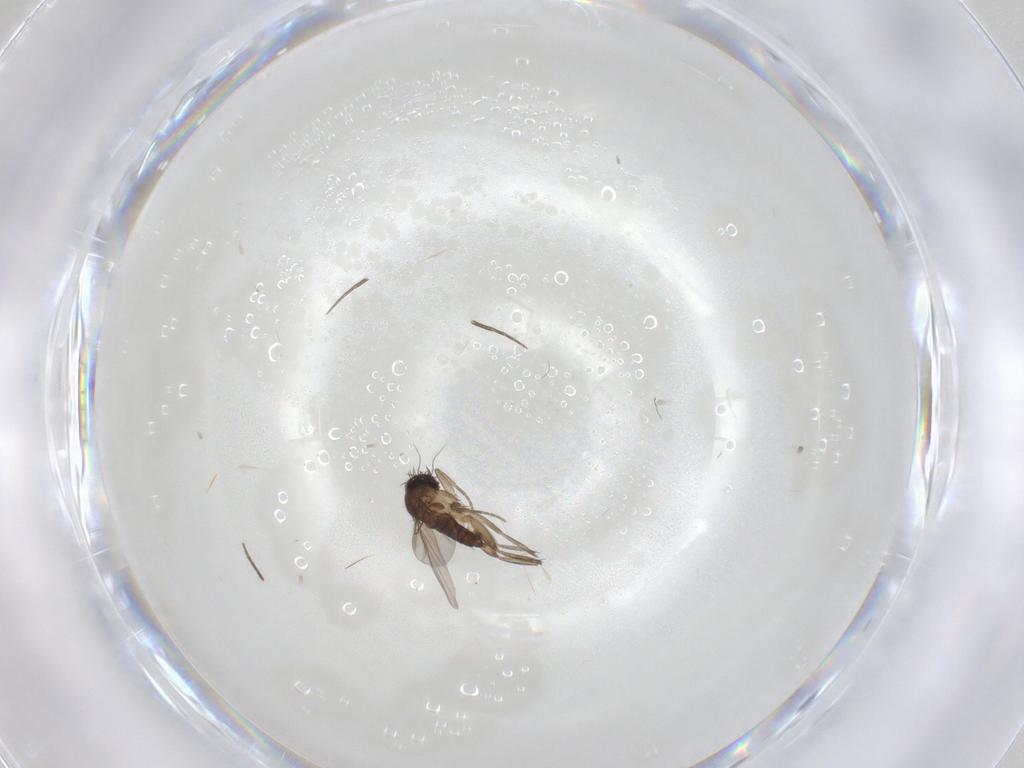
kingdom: Animalia
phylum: Arthropoda
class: Insecta
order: Diptera
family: Phoridae
